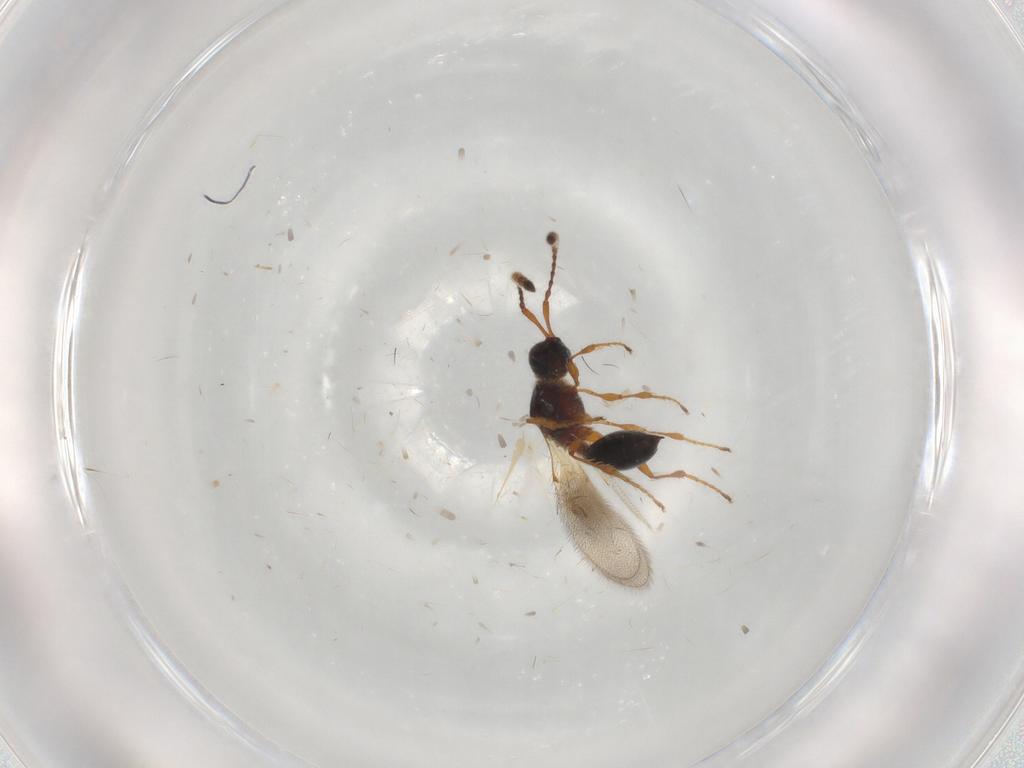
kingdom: Animalia
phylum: Arthropoda
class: Insecta
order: Hymenoptera
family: Diapriidae
